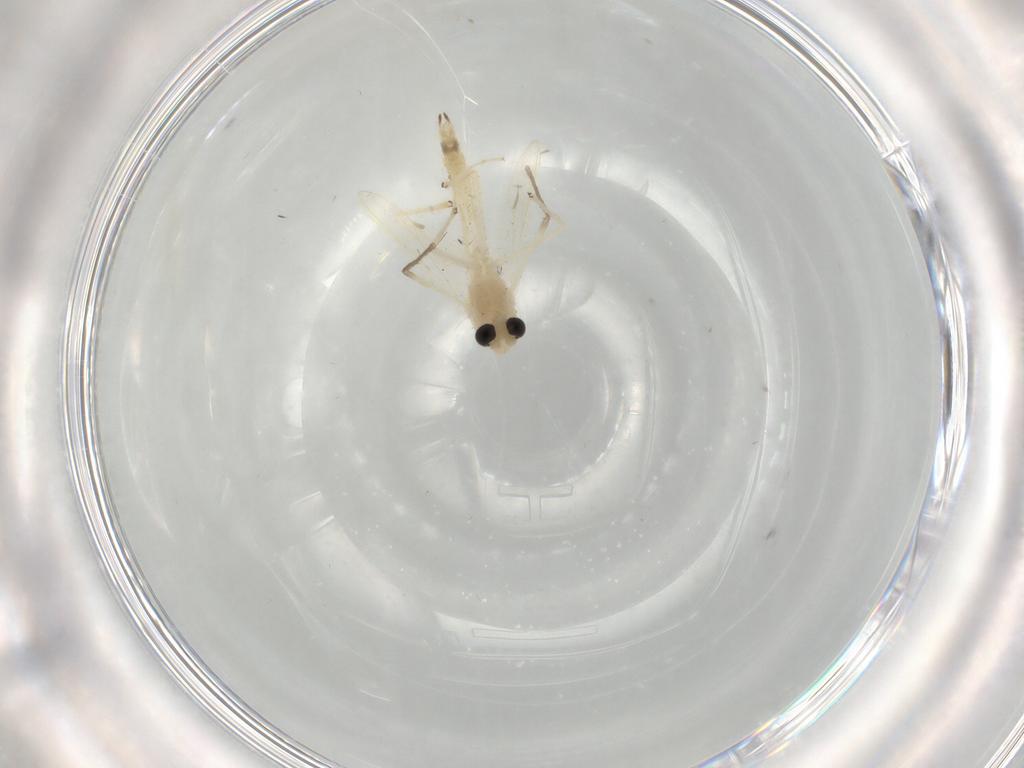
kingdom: Animalia
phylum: Arthropoda
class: Insecta
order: Diptera
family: Chironomidae
